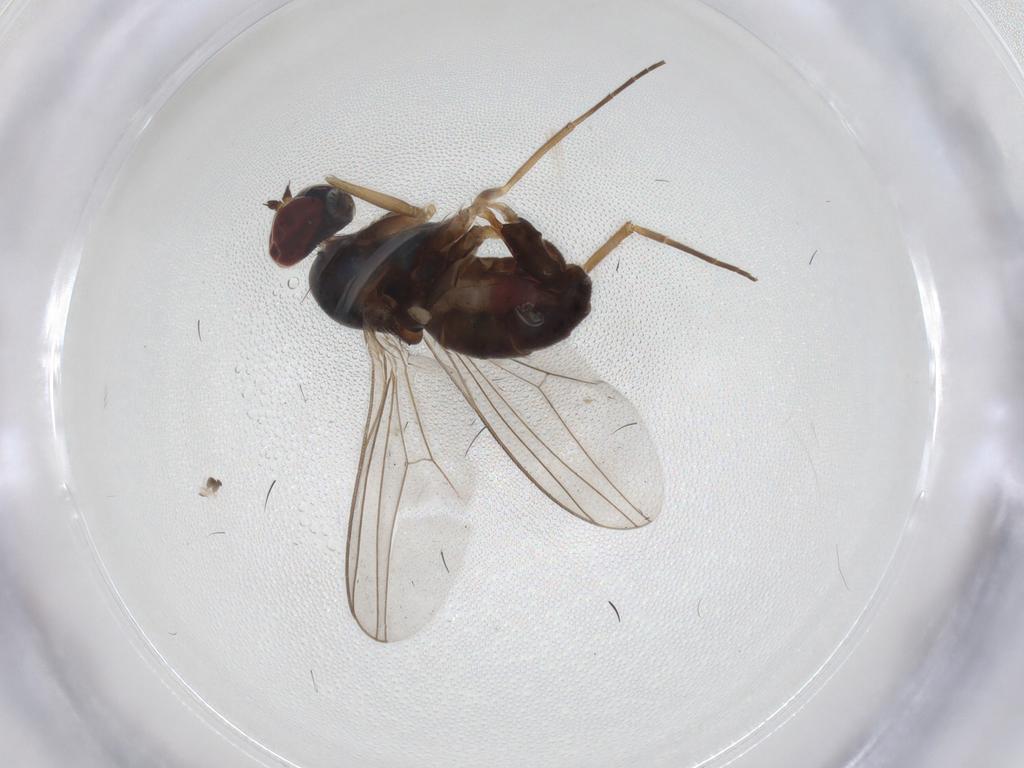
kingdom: Animalia
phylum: Arthropoda
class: Insecta
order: Diptera
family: Dolichopodidae
